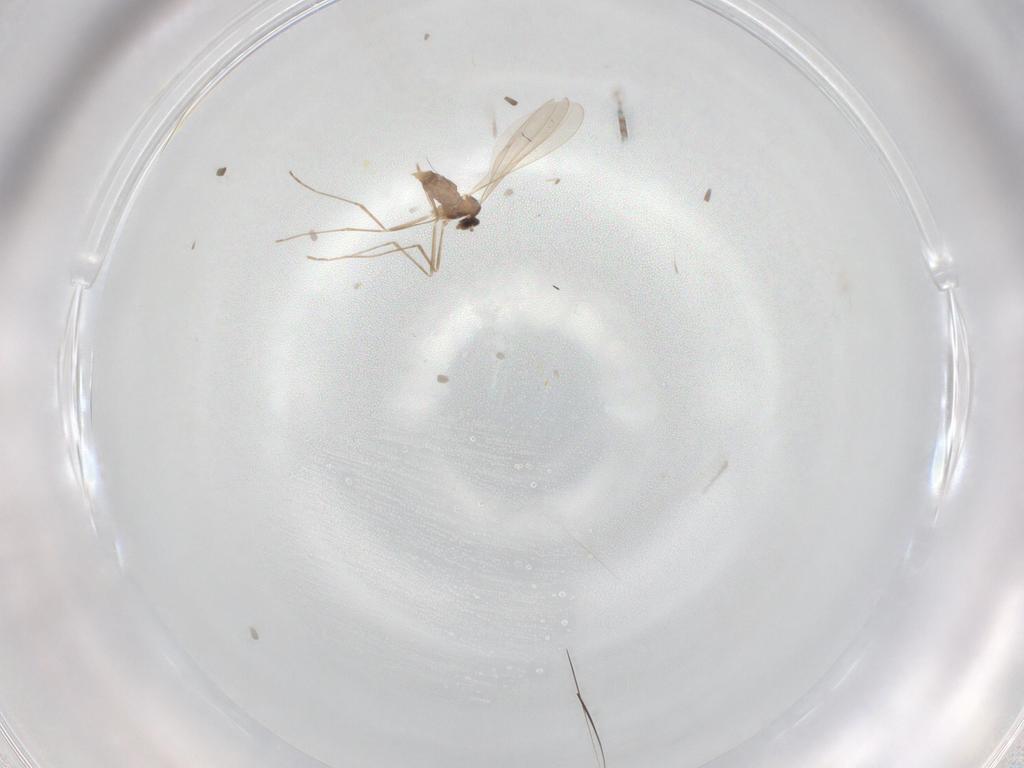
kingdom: Animalia
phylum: Arthropoda
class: Insecta
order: Diptera
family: Cecidomyiidae
